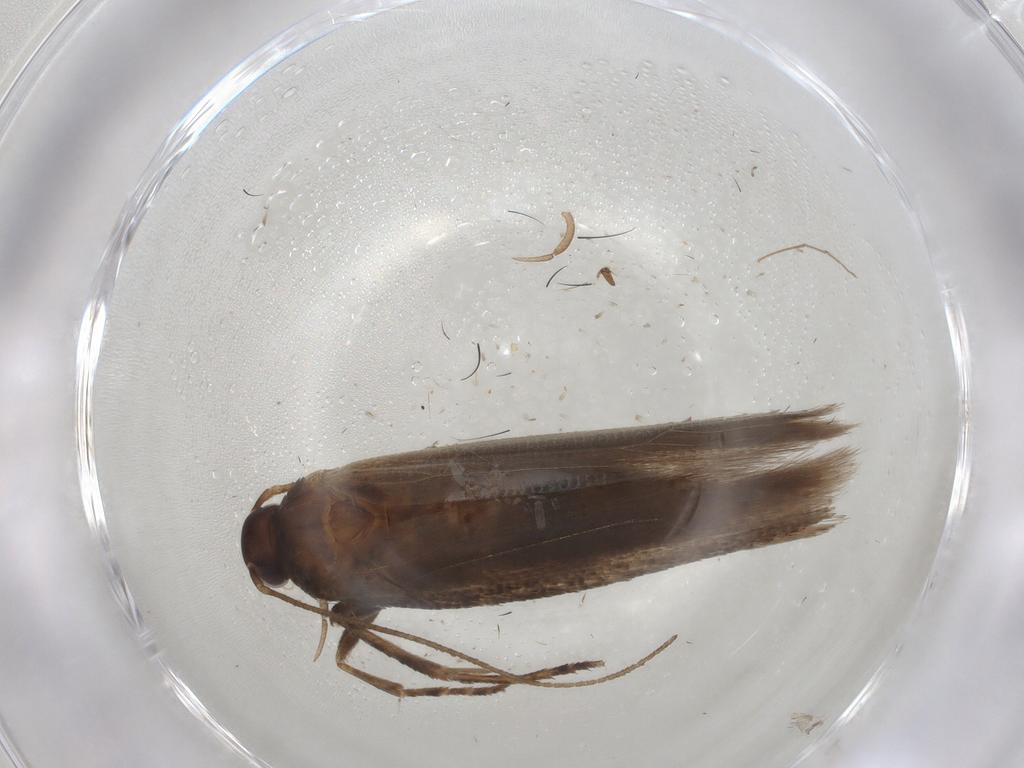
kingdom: Animalia
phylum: Arthropoda
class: Insecta
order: Lepidoptera
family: Gelechiidae
